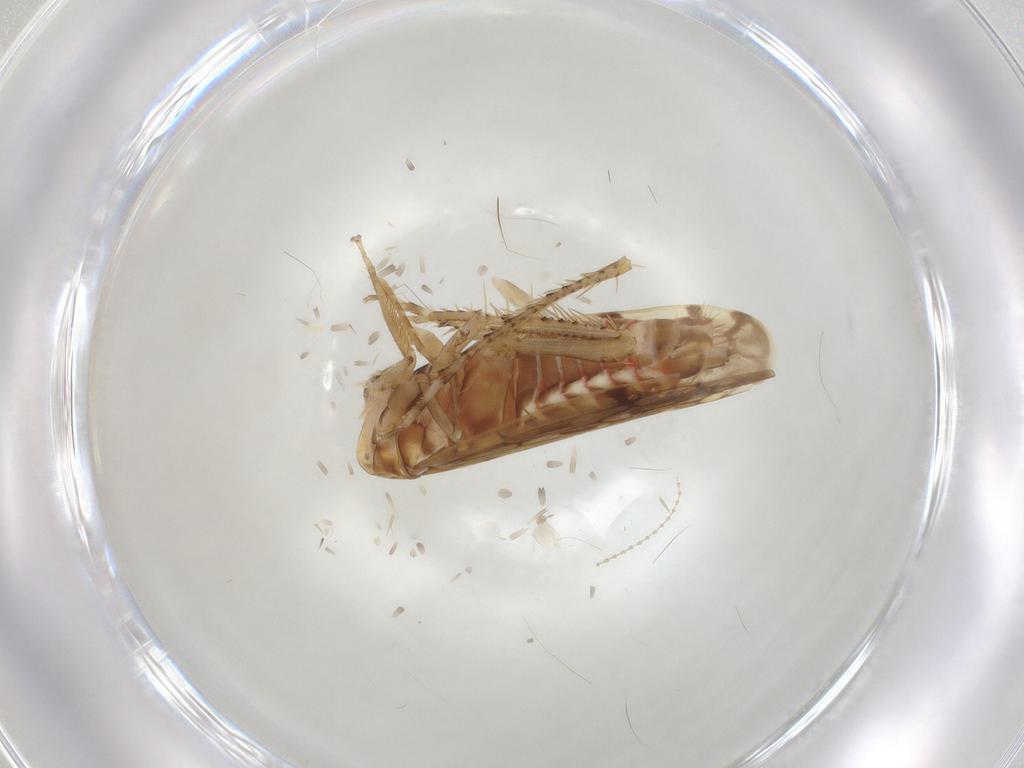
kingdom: Animalia
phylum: Arthropoda
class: Insecta
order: Hemiptera
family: Cicadellidae
